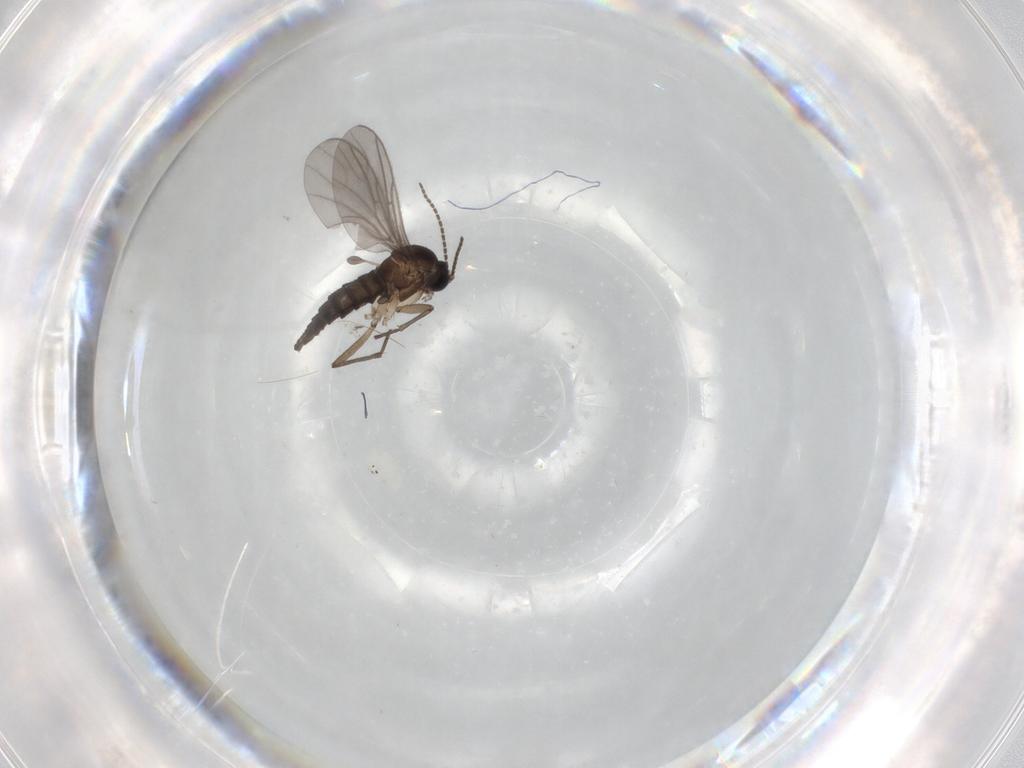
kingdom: Animalia
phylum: Arthropoda
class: Insecta
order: Diptera
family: Sciaridae
